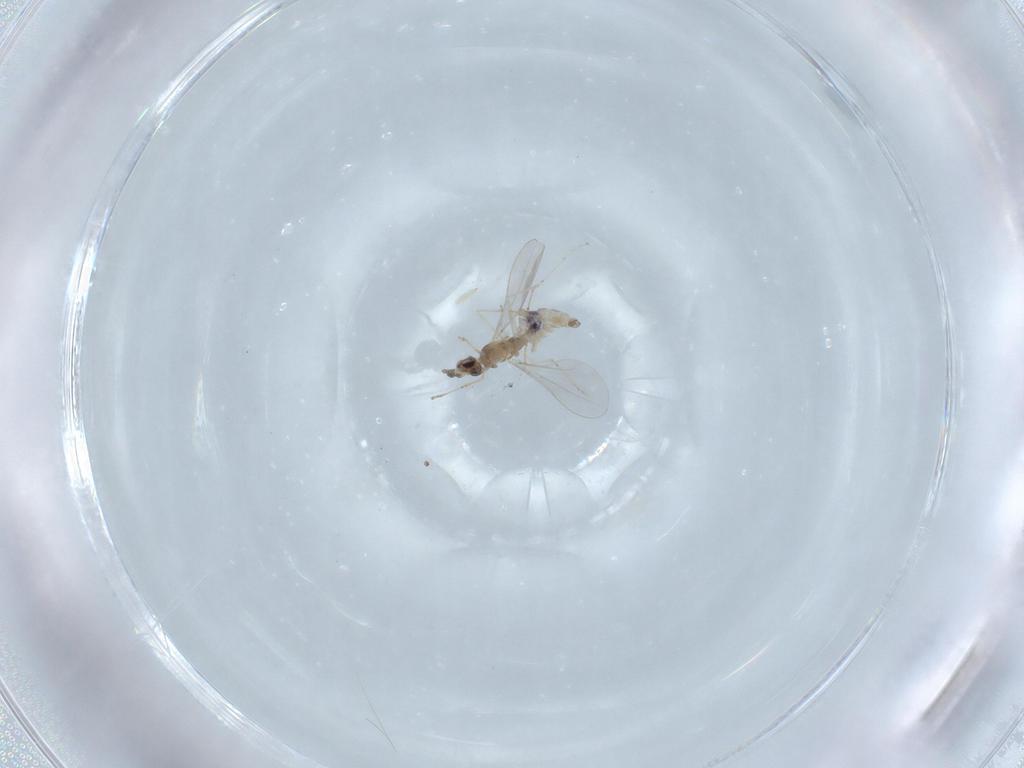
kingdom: Animalia
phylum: Arthropoda
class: Insecta
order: Diptera
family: Cecidomyiidae
